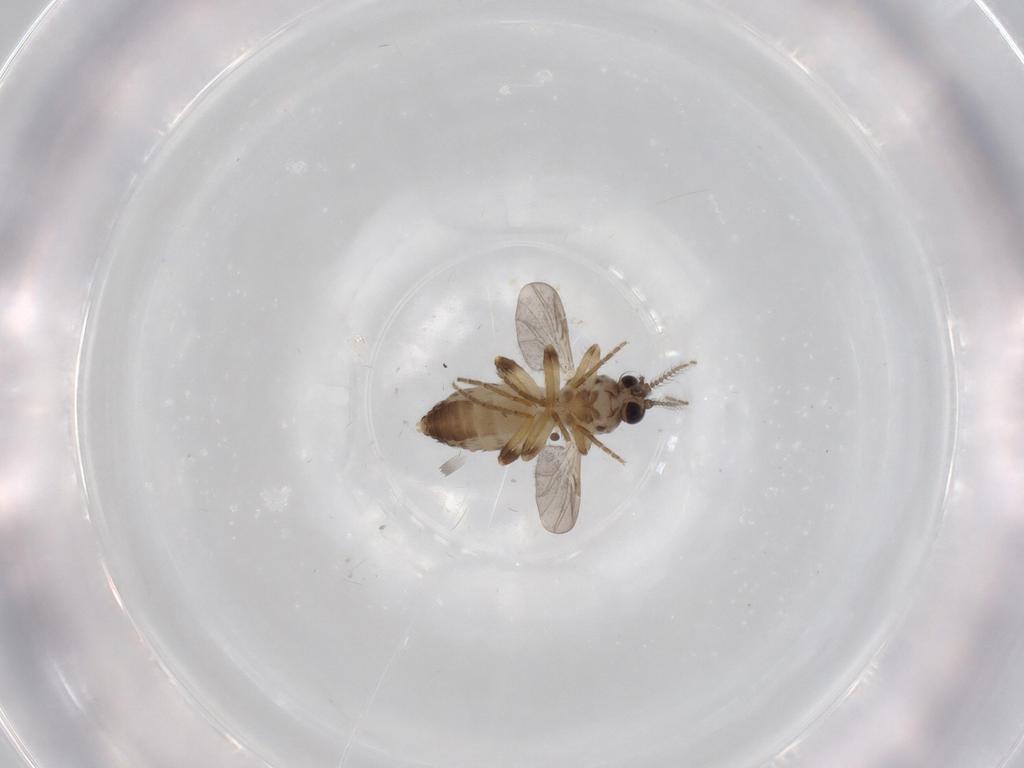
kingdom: Animalia
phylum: Arthropoda
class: Insecta
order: Diptera
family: Ceratopogonidae
